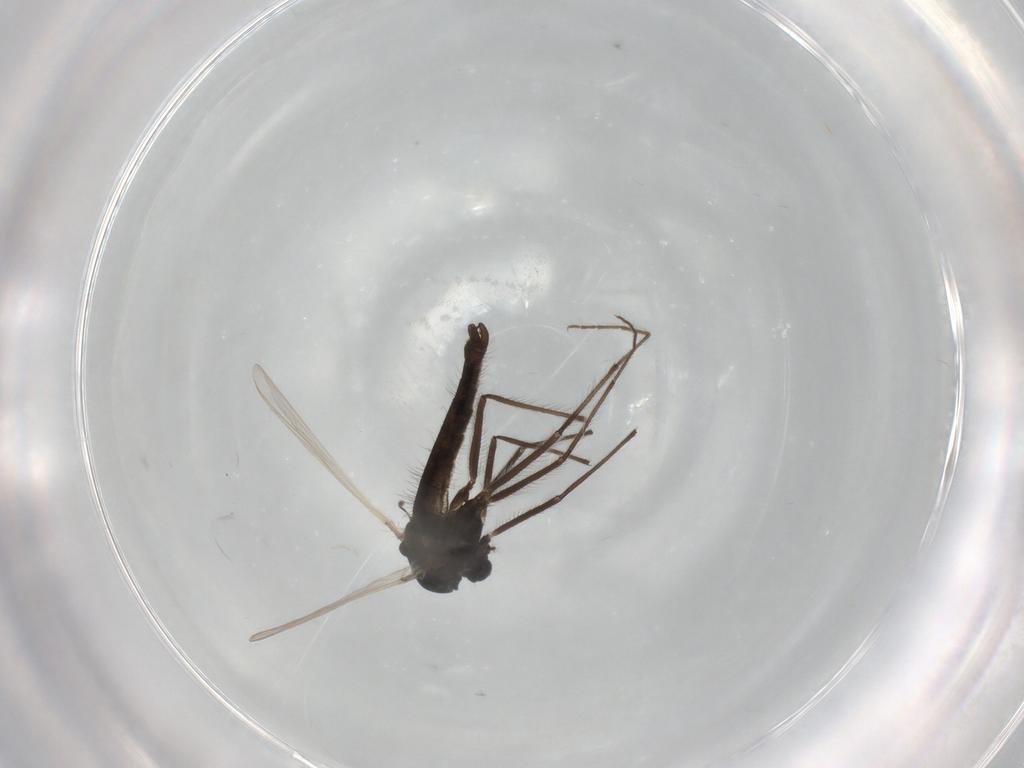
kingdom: Animalia
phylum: Arthropoda
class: Insecta
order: Diptera
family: Chironomidae
